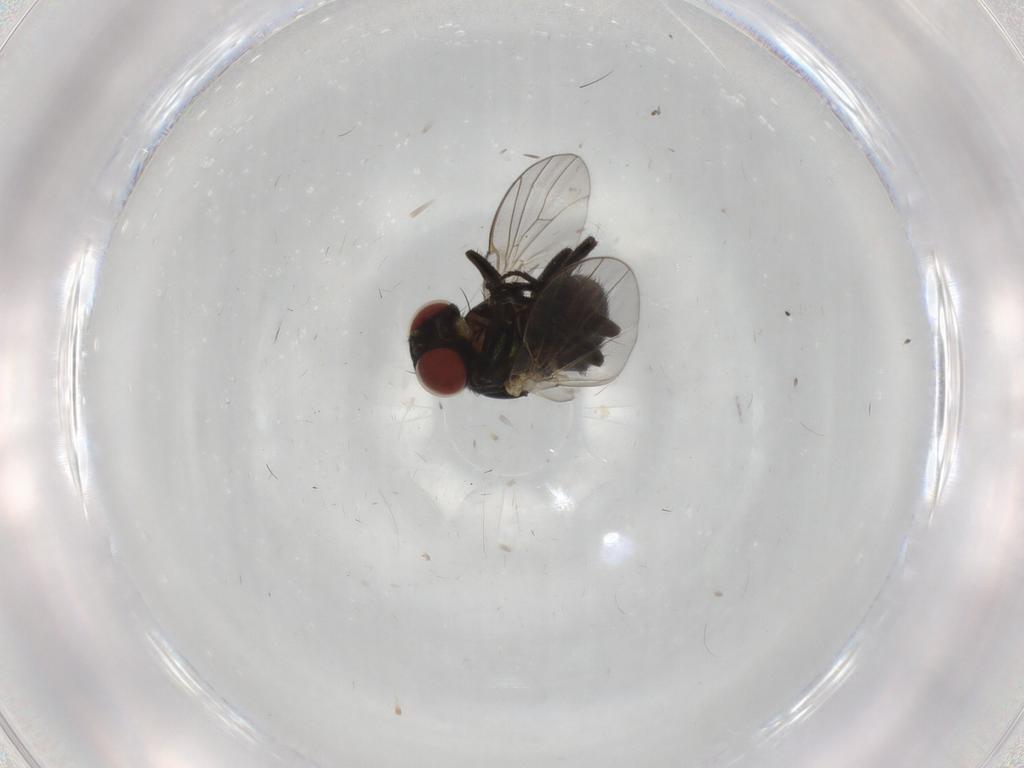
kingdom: Animalia
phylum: Arthropoda
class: Insecta
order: Diptera
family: Agromyzidae
